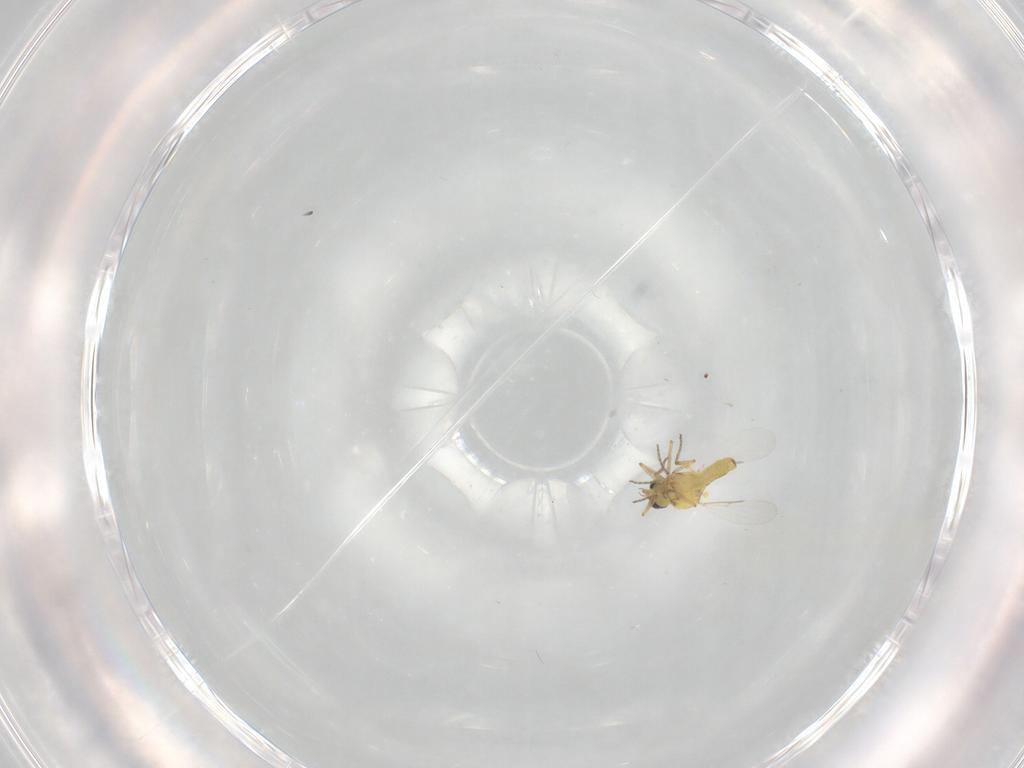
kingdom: Animalia
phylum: Arthropoda
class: Insecta
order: Diptera
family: Ceratopogonidae
